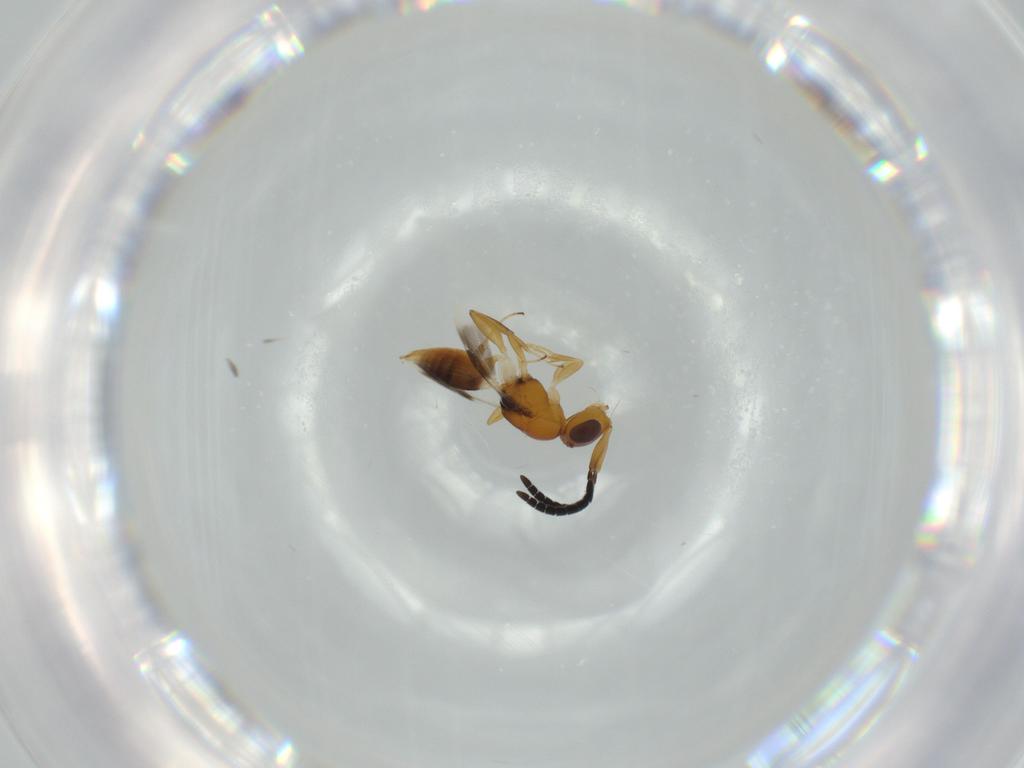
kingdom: Animalia
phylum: Arthropoda
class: Insecta
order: Hymenoptera
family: Megaspilidae
